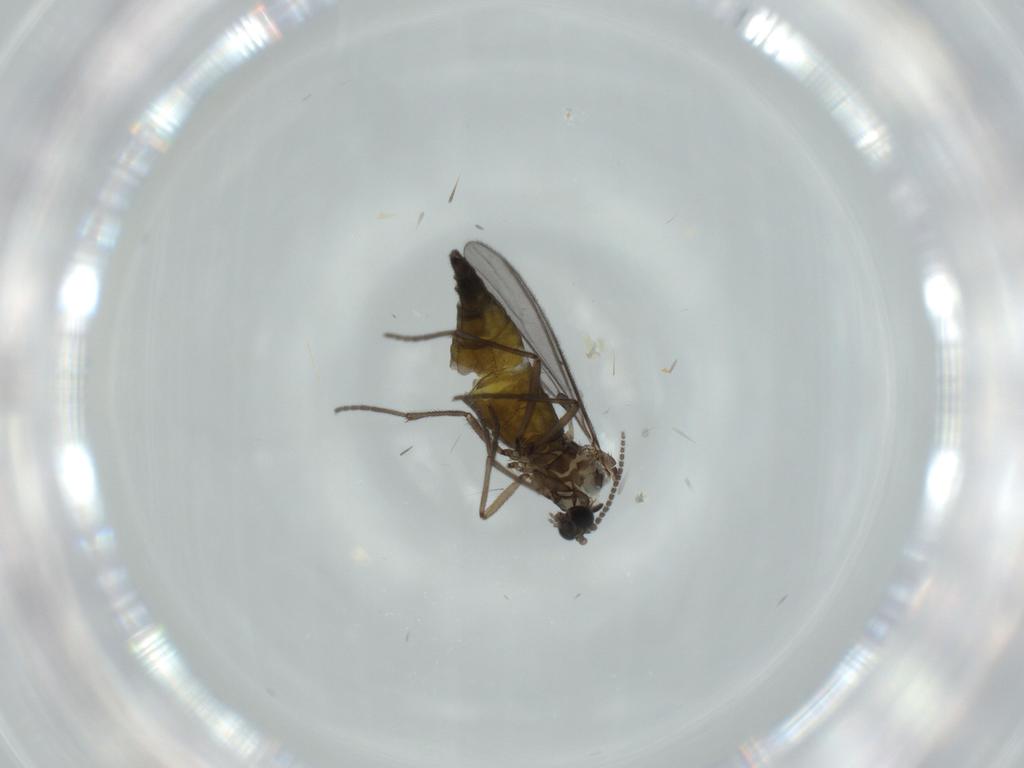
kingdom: Animalia
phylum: Arthropoda
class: Insecta
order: Diptera
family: Sciaridae
